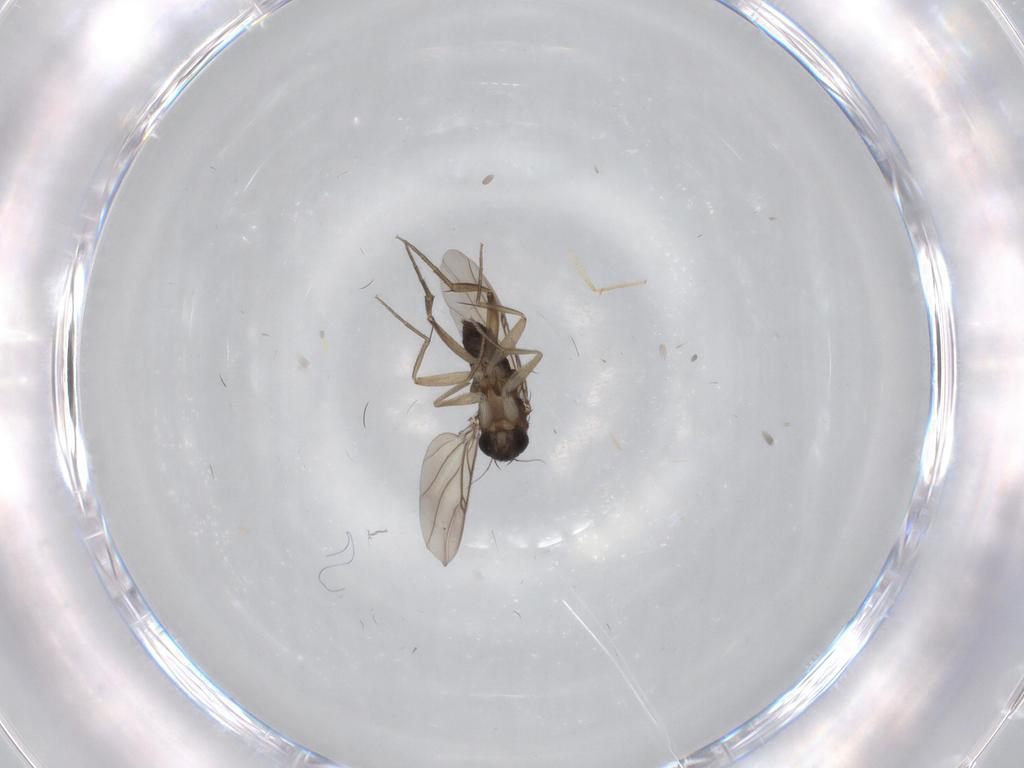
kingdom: Animalia
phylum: Arthropoda
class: Insecta
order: Diptera
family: Phoridae
